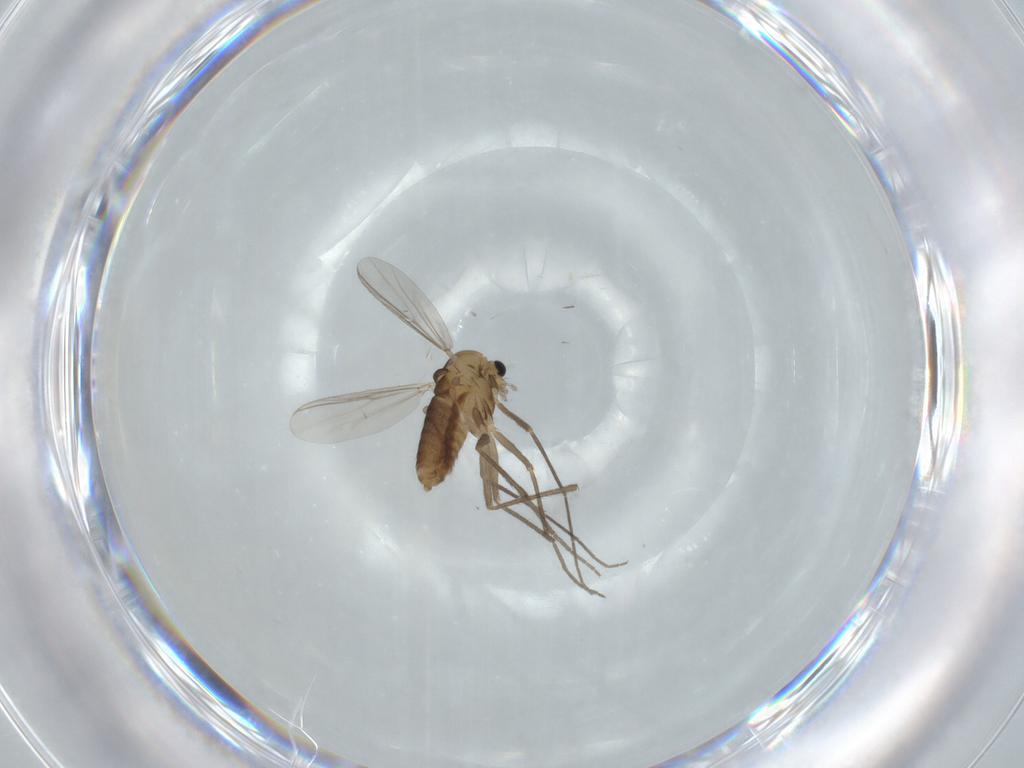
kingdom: Animalia
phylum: Arthropoda
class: Insecta
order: Diptera
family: Chironomidae
